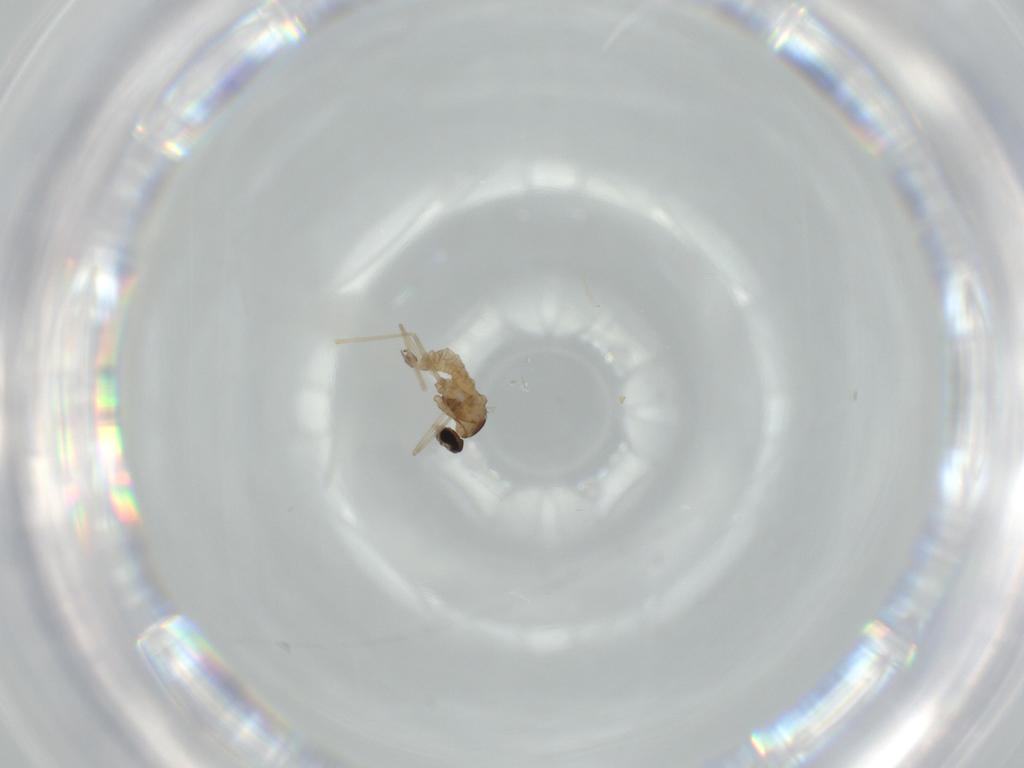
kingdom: Animalia
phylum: Arthropoda
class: Insecta
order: Diptera
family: Cecidomyiidae
